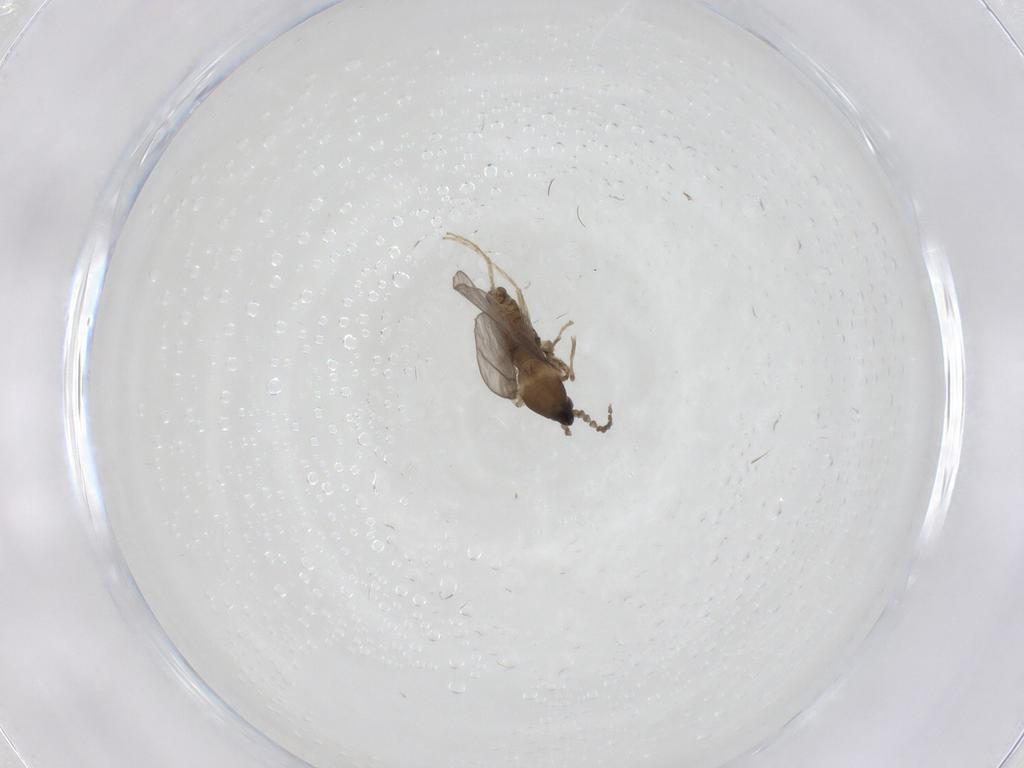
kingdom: Animalia
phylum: Arthropoda
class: Insecta
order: Diptera
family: Cecidomyiidae
